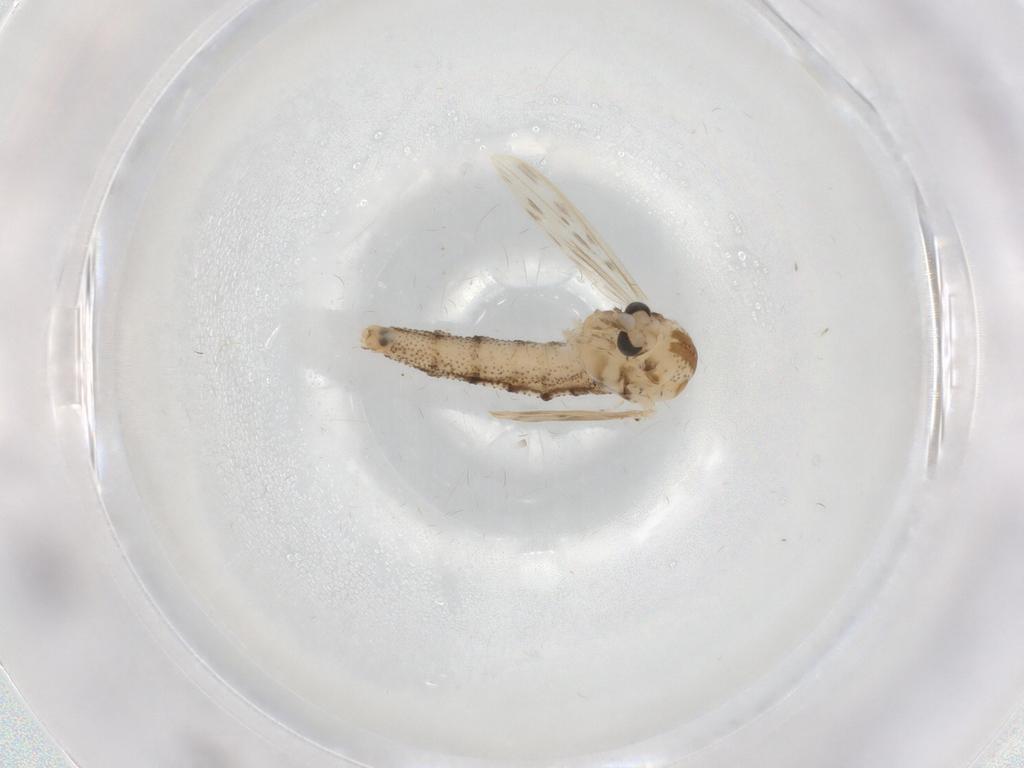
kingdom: Animalia
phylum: Arthropoda
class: Insecta
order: Diptera
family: Chaoboridae
